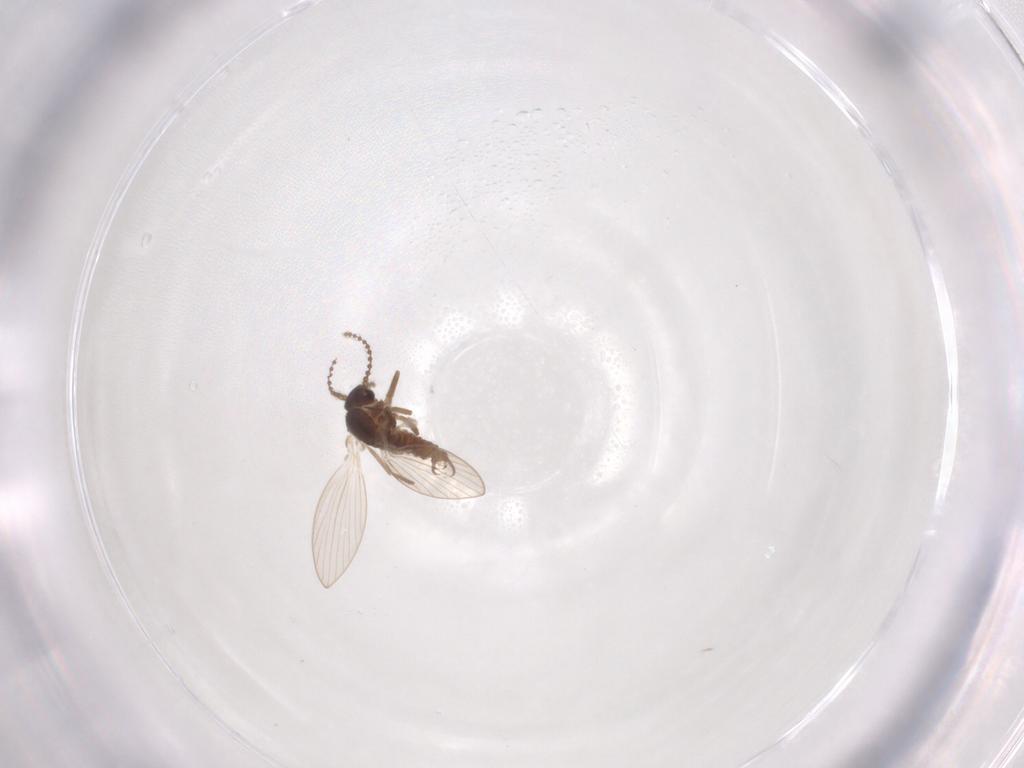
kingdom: Animalia
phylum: Arthropoda
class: Insecta
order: Diptera
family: Psychodidae
